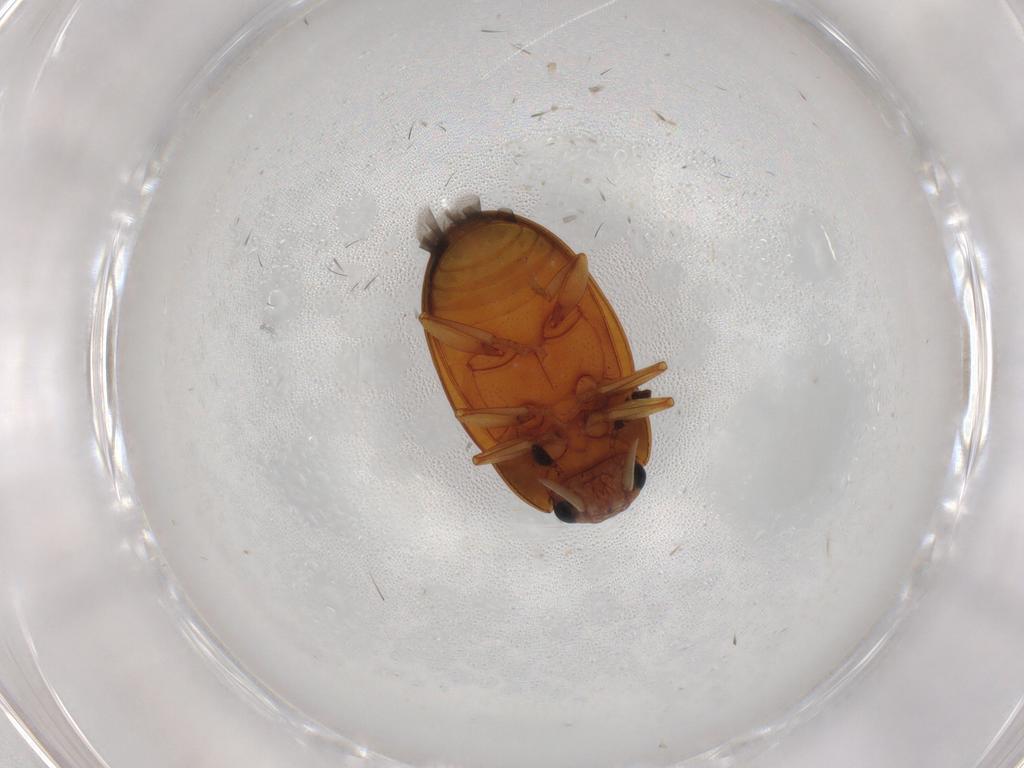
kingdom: Animalia
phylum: Arthropoda
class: Insecta
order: Coleoptera
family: Erotylidae
